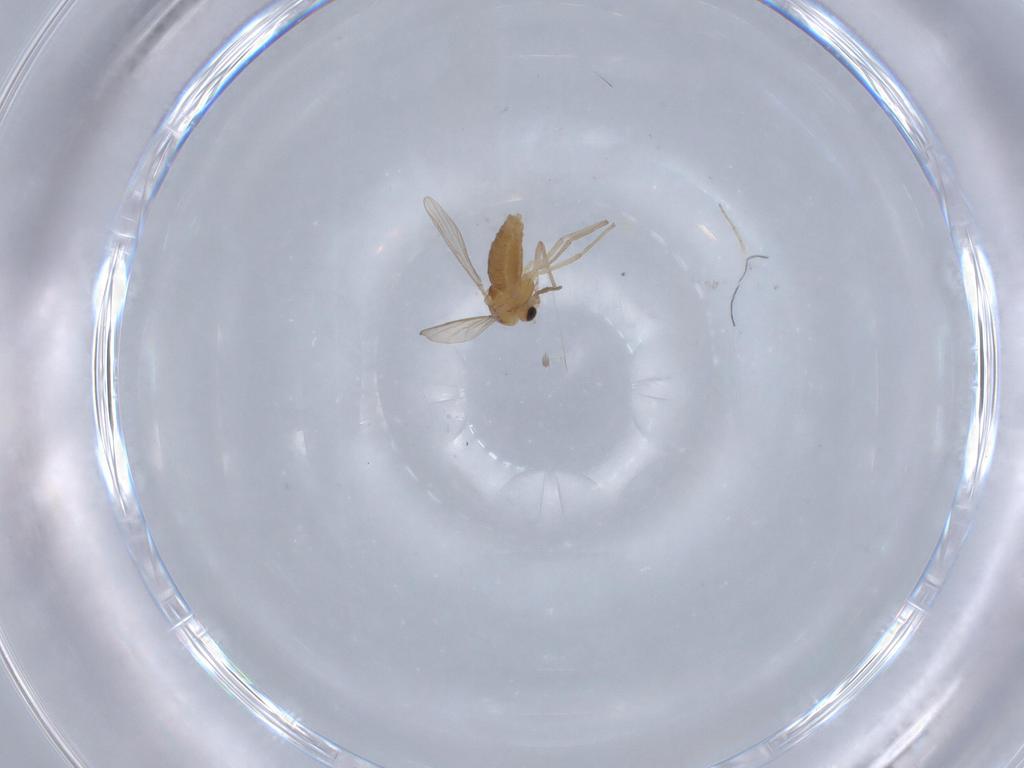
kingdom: Animalia
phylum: Arthropoda
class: Insecta
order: Diptera
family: Chironomidae
